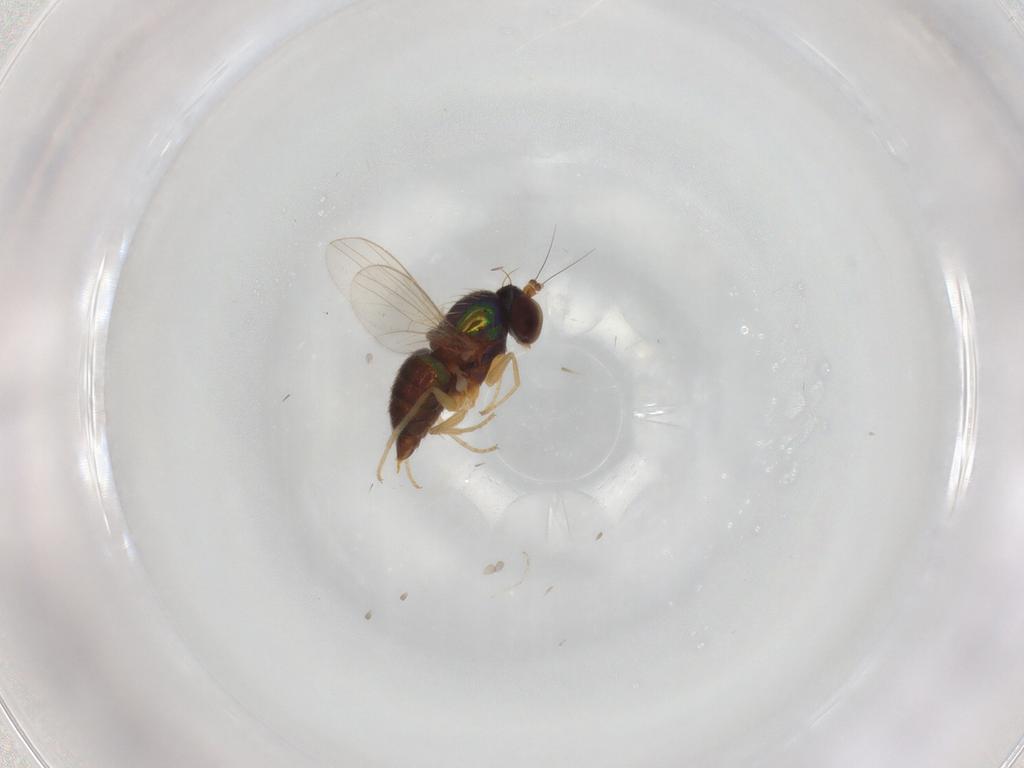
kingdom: Animalia
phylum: Arthropoda
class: Insecta
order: Diptera
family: Dolichopodidae
